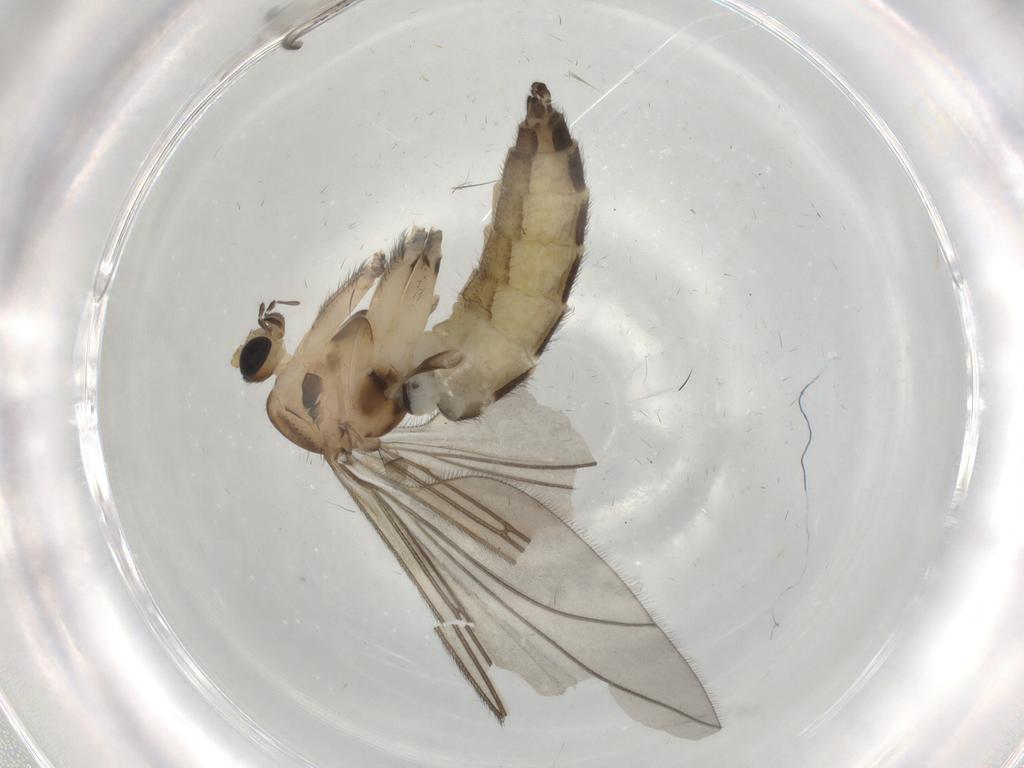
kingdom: Animalia
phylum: Arthropoda
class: Insecta
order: Diptera
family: Sciaridae
